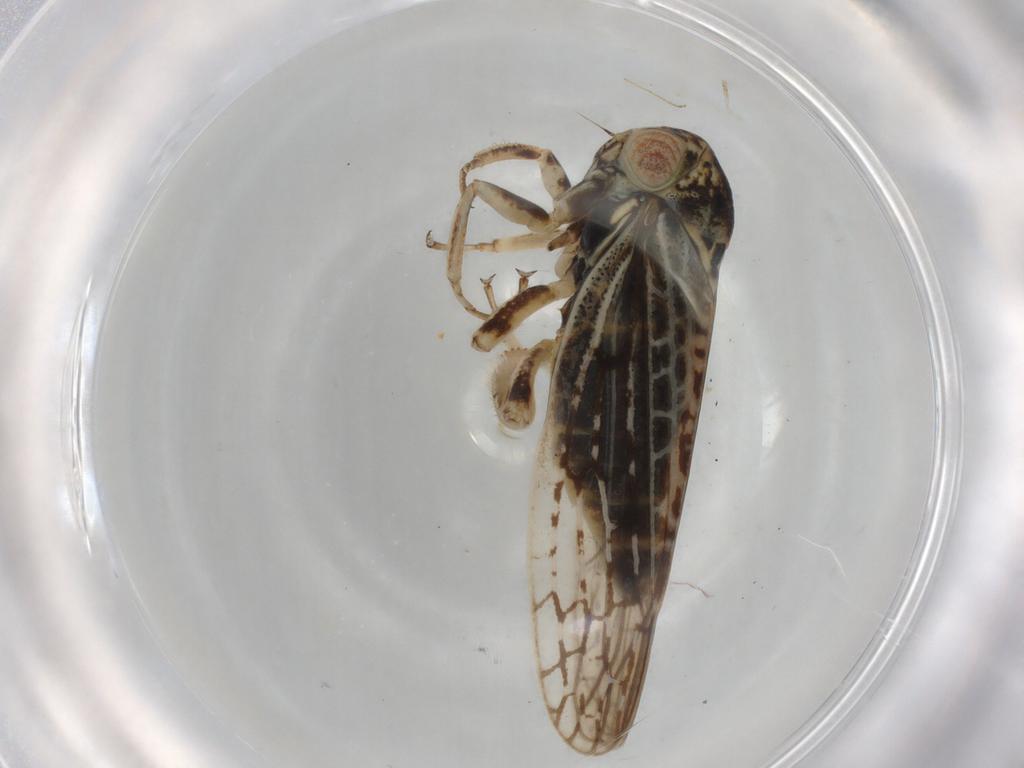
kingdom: Animalia
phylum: Arthropoda
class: Insecta
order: Hemiptera
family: Cicadellidae
